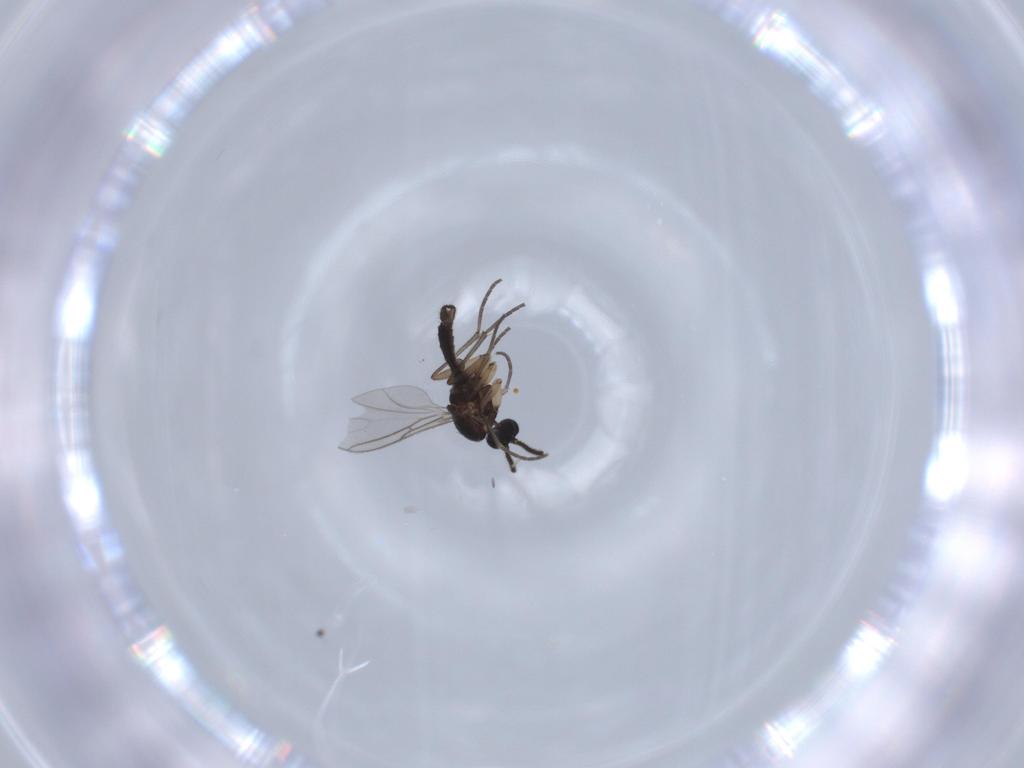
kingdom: Animalia
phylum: Arthropoda
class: Insecta
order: Diptera
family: Sciaridae
